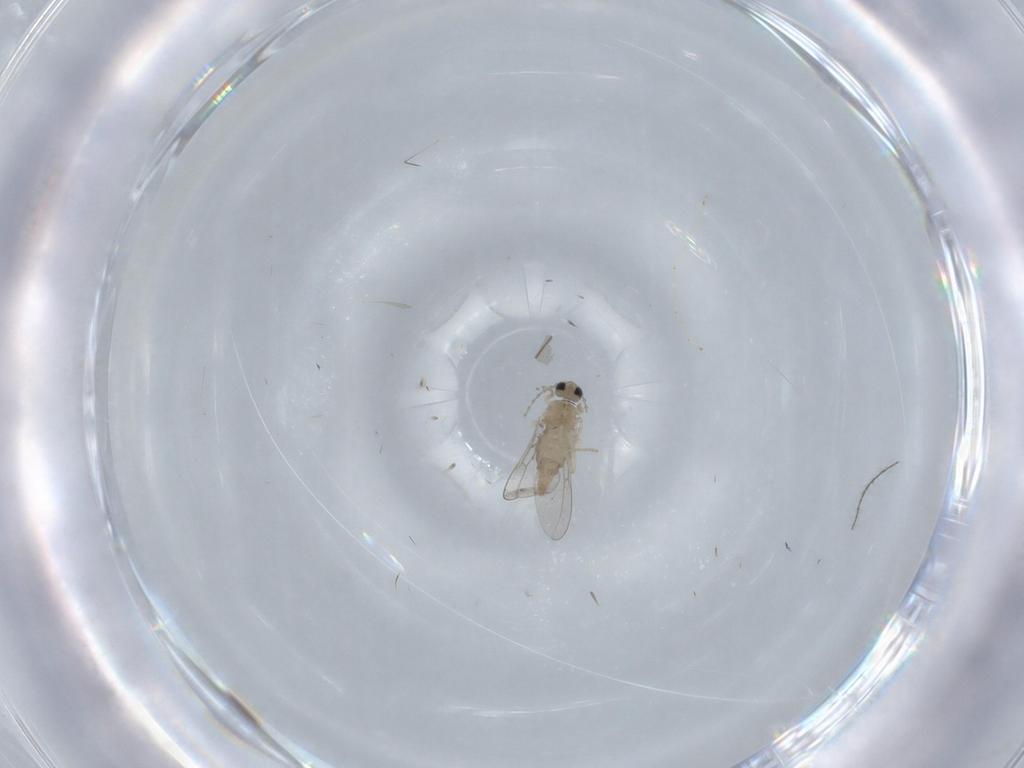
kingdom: Animalia
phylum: Arthropoda
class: Insecta
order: Diptera
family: Cecidomyiidae
